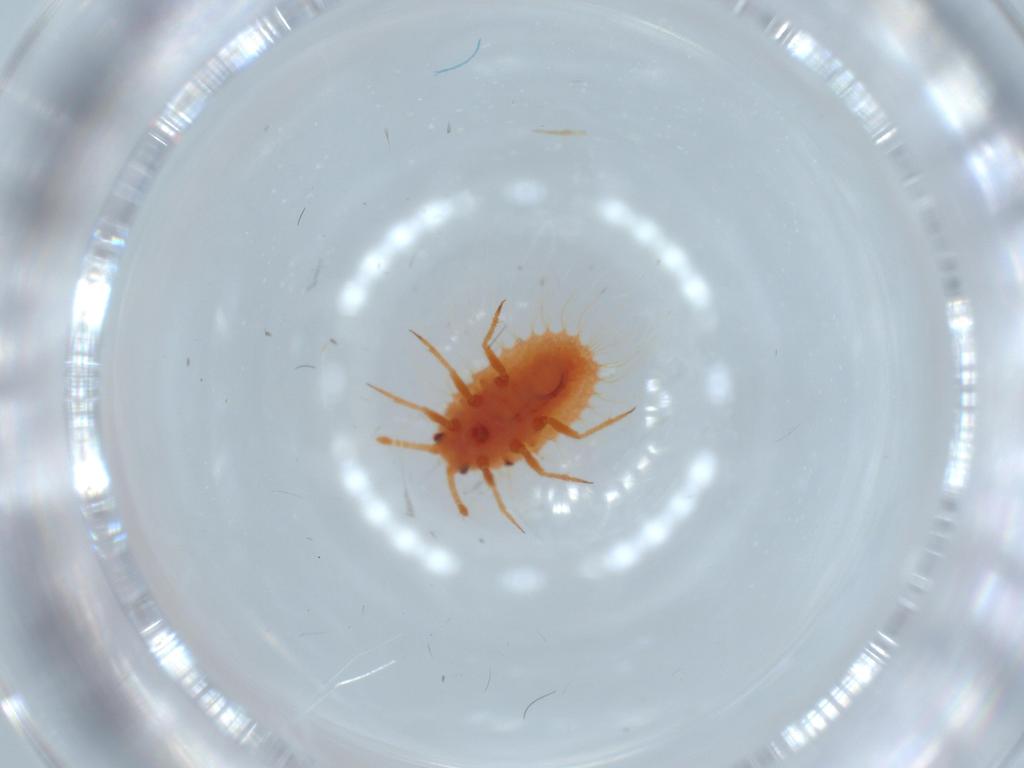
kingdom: Animalia
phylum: Arthropoda
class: Insecta
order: Hemiptera
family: Coccoidea_incertae_sedis
